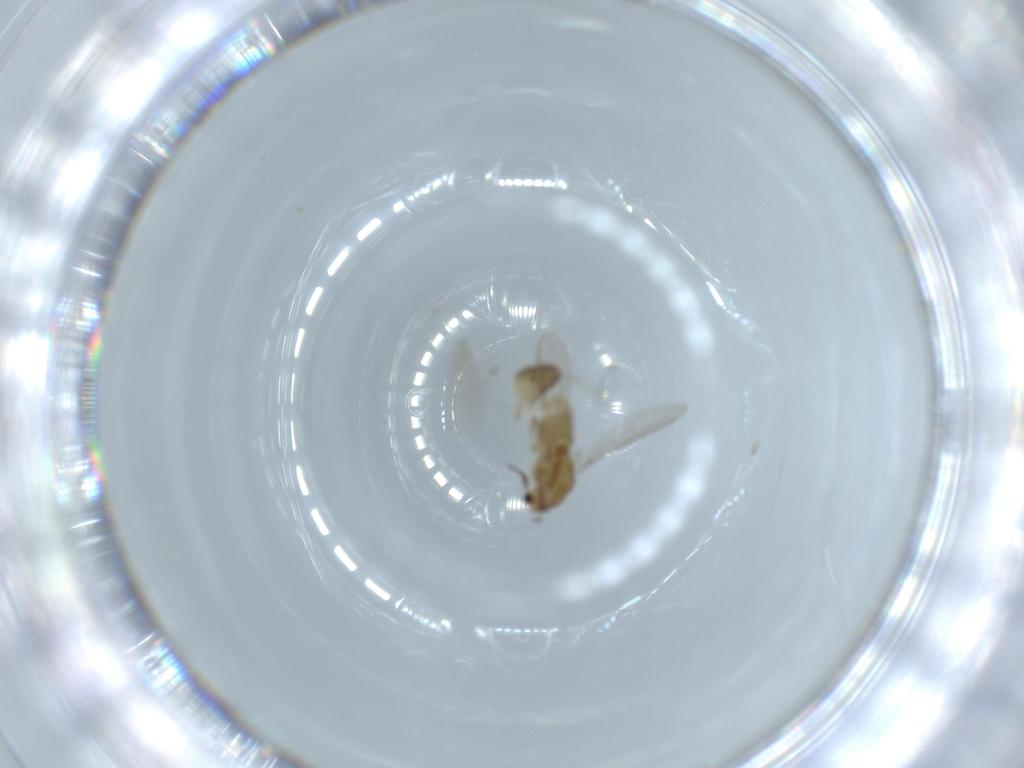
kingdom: Animalia
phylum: Arthropoda
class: Insecta
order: Diptera
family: Chironomidae
